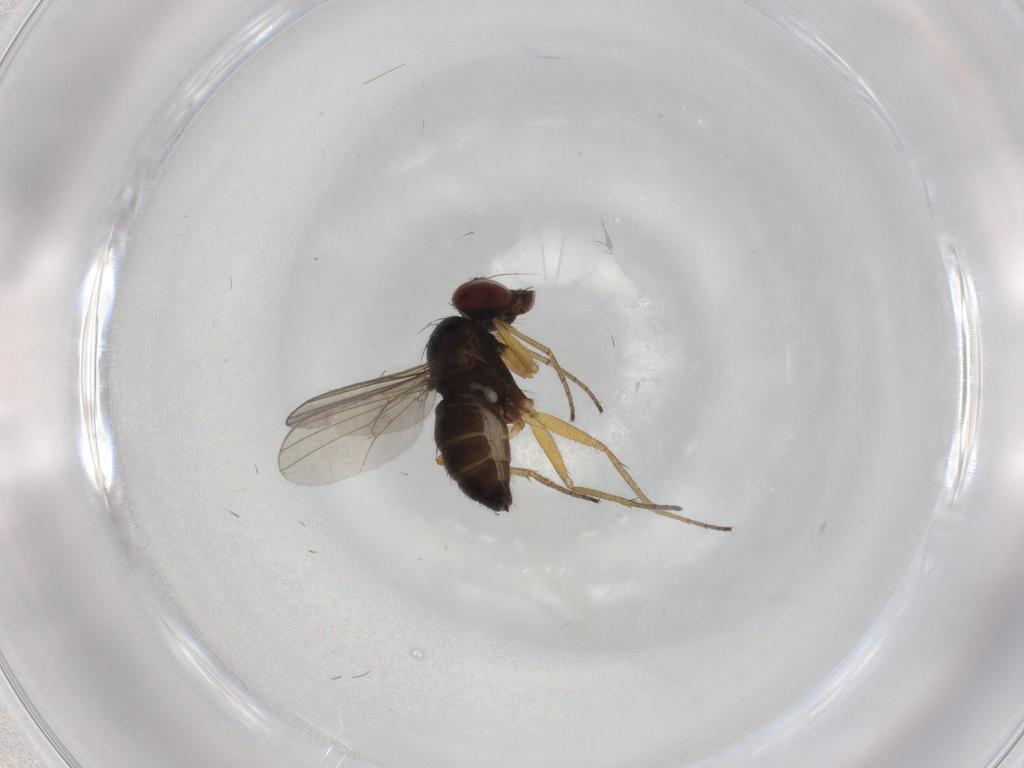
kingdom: Animalia
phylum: Arthropoda
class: Insecta
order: Diptera
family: Dolichopodidae
